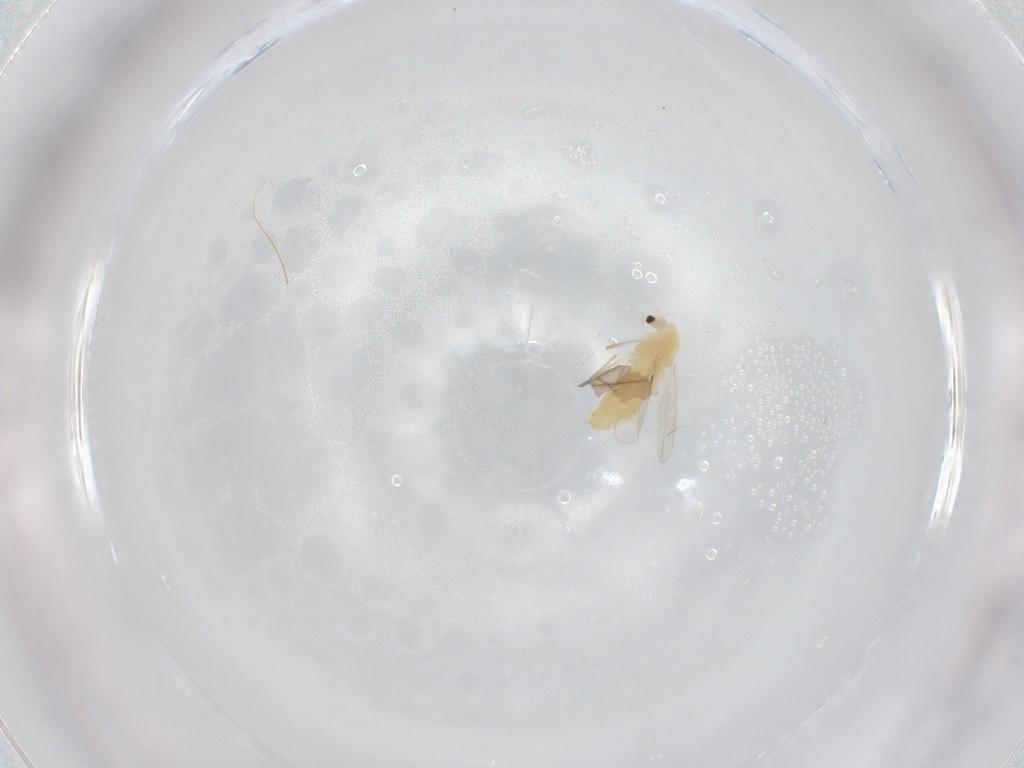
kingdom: Animalia
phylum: Arthropoda
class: Insecta
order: Diptera
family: Chironomidae
